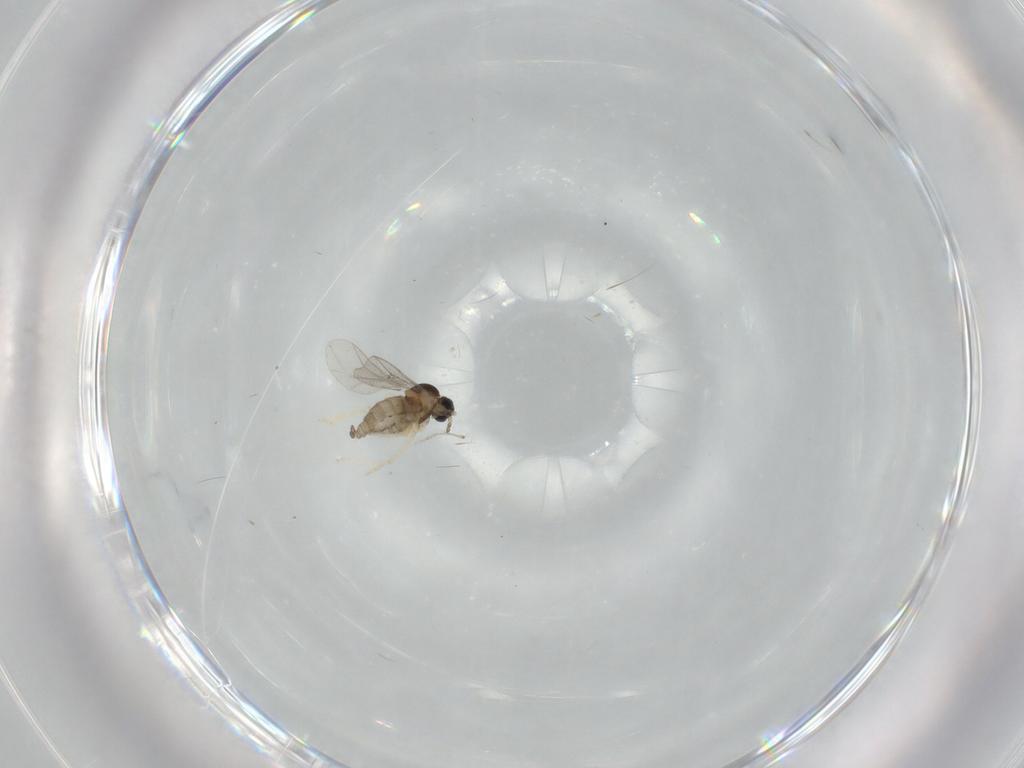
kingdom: Animalia
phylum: Arthropoda
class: Insecta
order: Diptera
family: Cecidomyiidae
